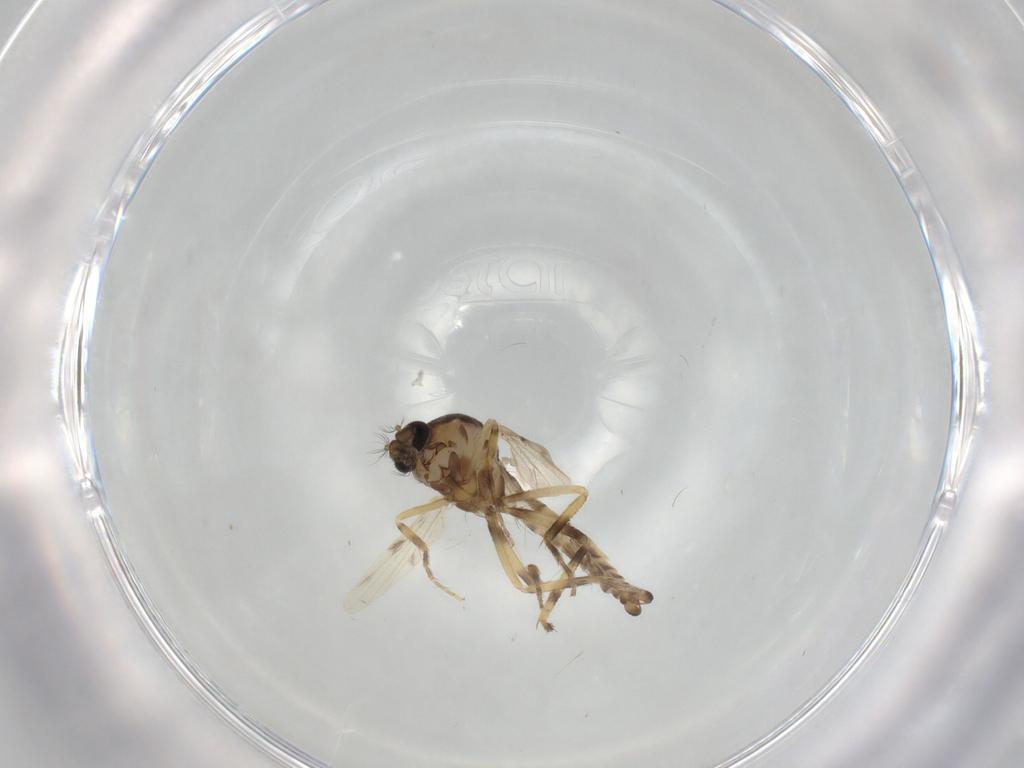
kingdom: Animalia
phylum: Arthropoda
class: Insecta
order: Diptera
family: Ceratopogonidae
